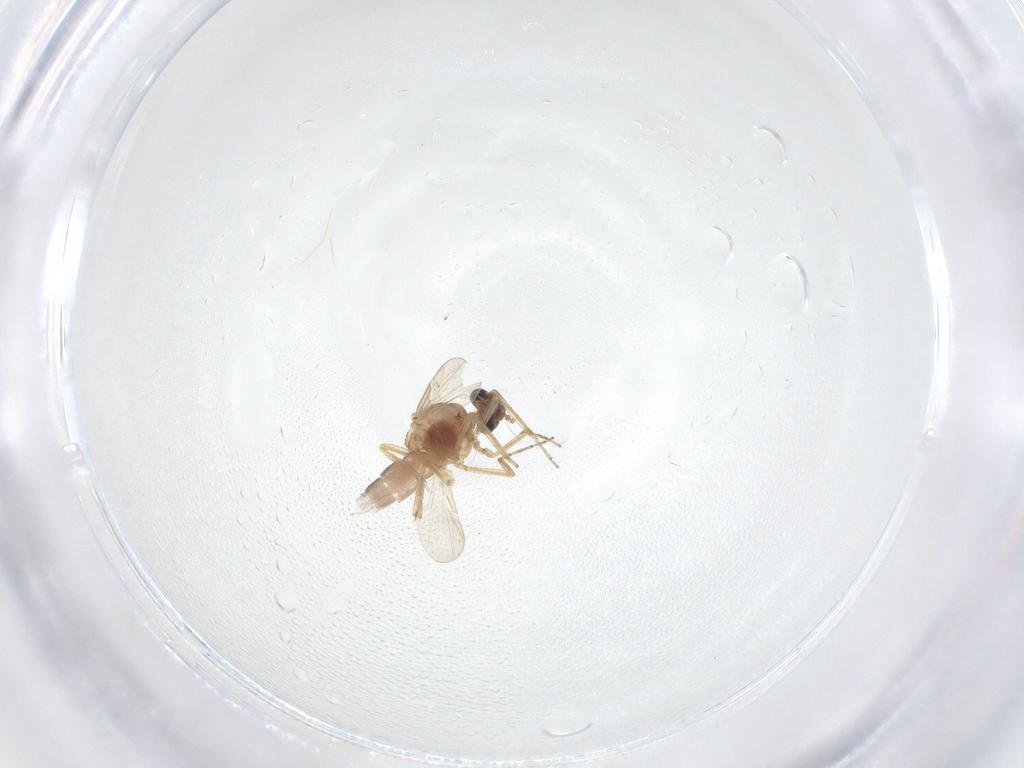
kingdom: Animalia
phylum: Arthropoda
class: Insecta
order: Diptera
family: Ceratopogonidae
